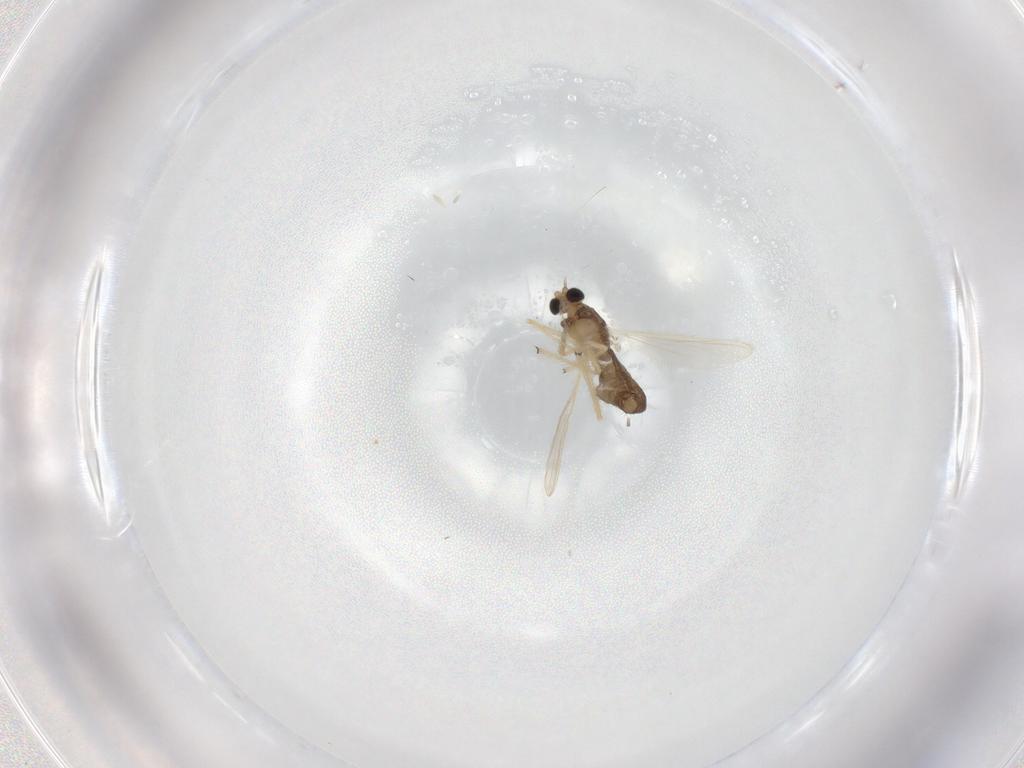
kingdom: Animalia
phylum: Arthropoda
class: Insecta
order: Diptera
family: Chironomidae
